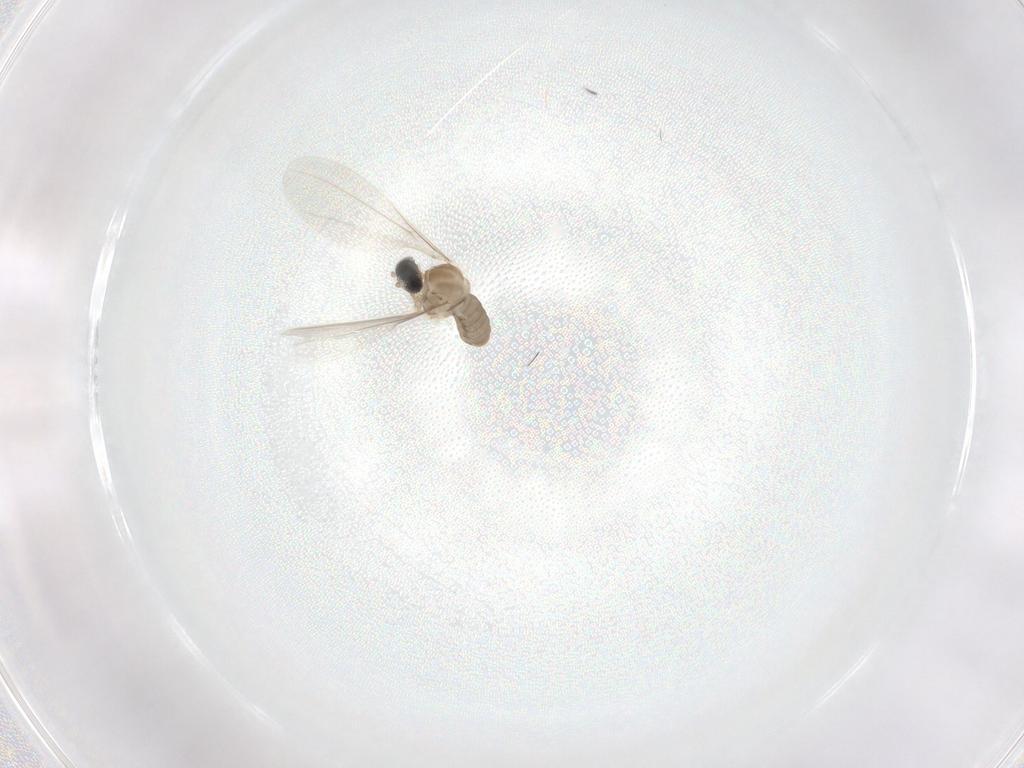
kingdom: Animalia
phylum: Arthropoda
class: Insecta
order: Diptera
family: Cecidomyiidae
